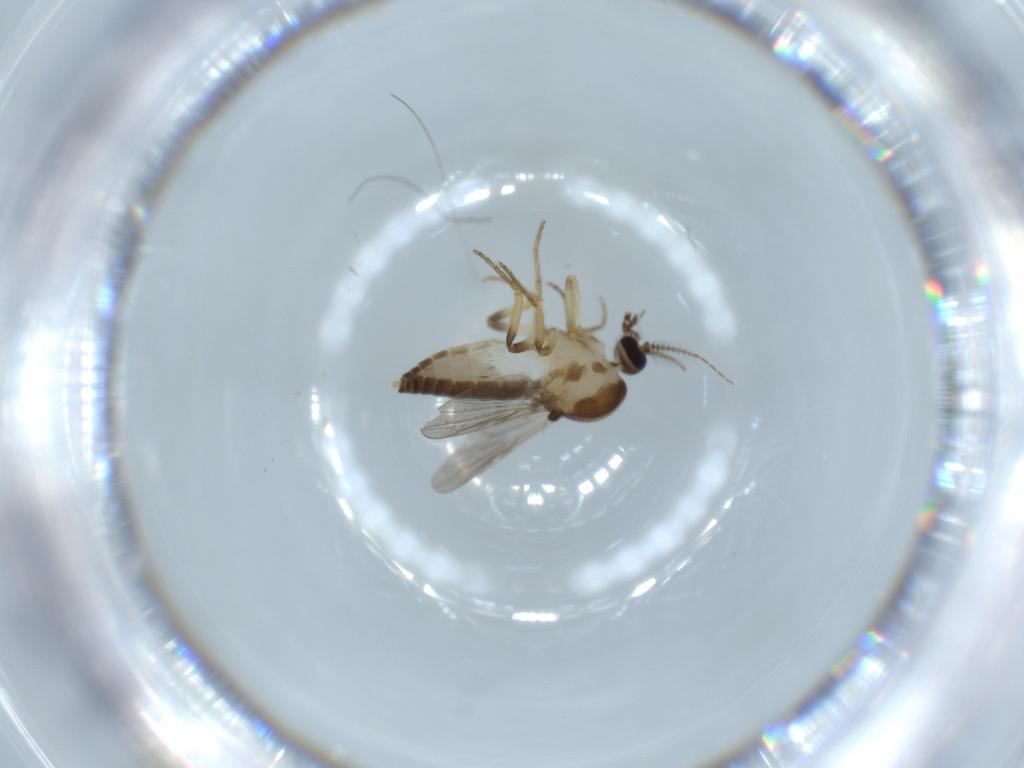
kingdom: Animalia
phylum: Arthropoda
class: Insecta
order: Diptera
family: Ceratopogonidae
